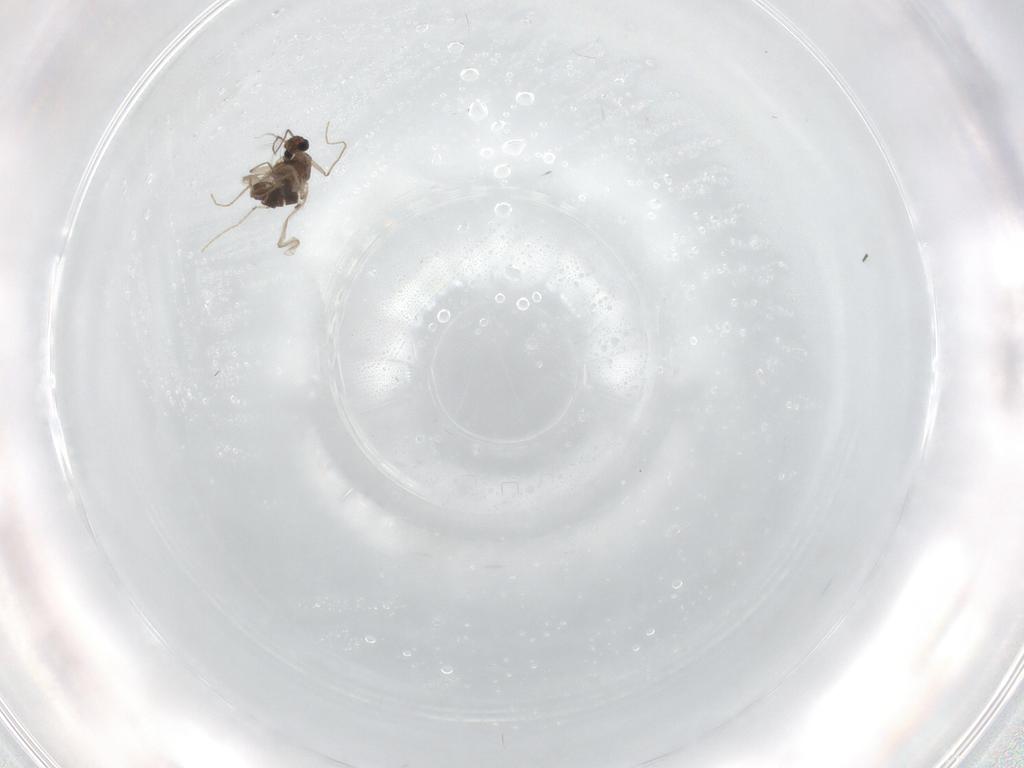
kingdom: Animalia
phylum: Arthropoda
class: Insecta
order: Diptera
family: Chironomidae
